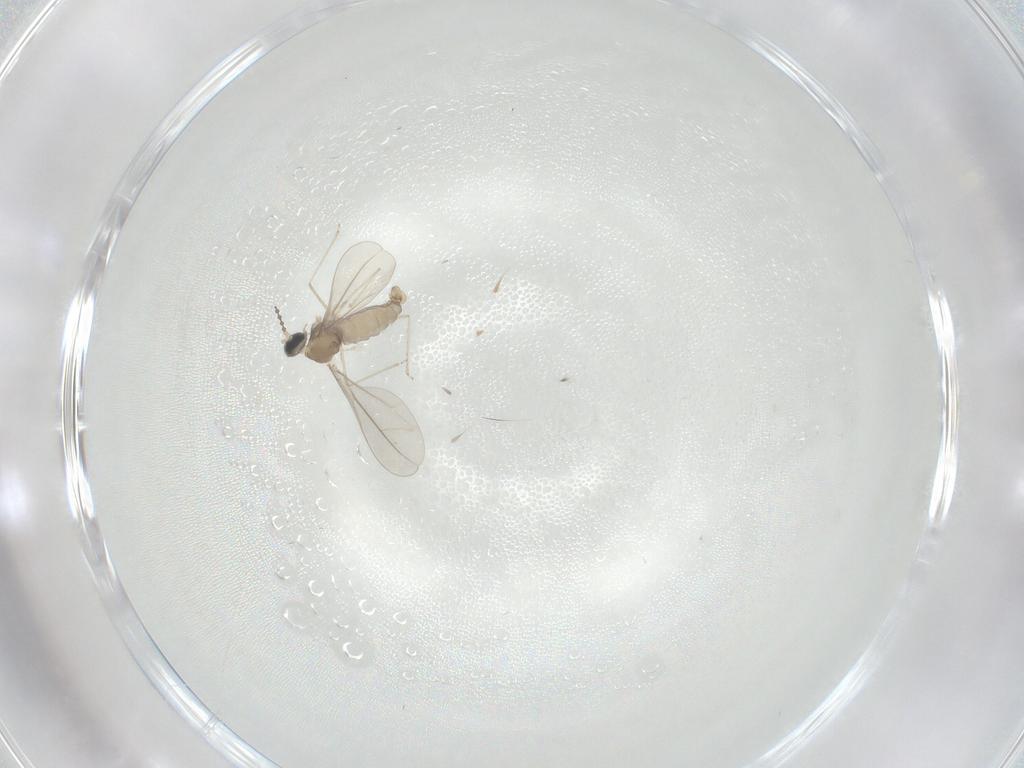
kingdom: Animalia
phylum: Arthropoda
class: Insecta
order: Diptera
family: Cecidomyiidae
